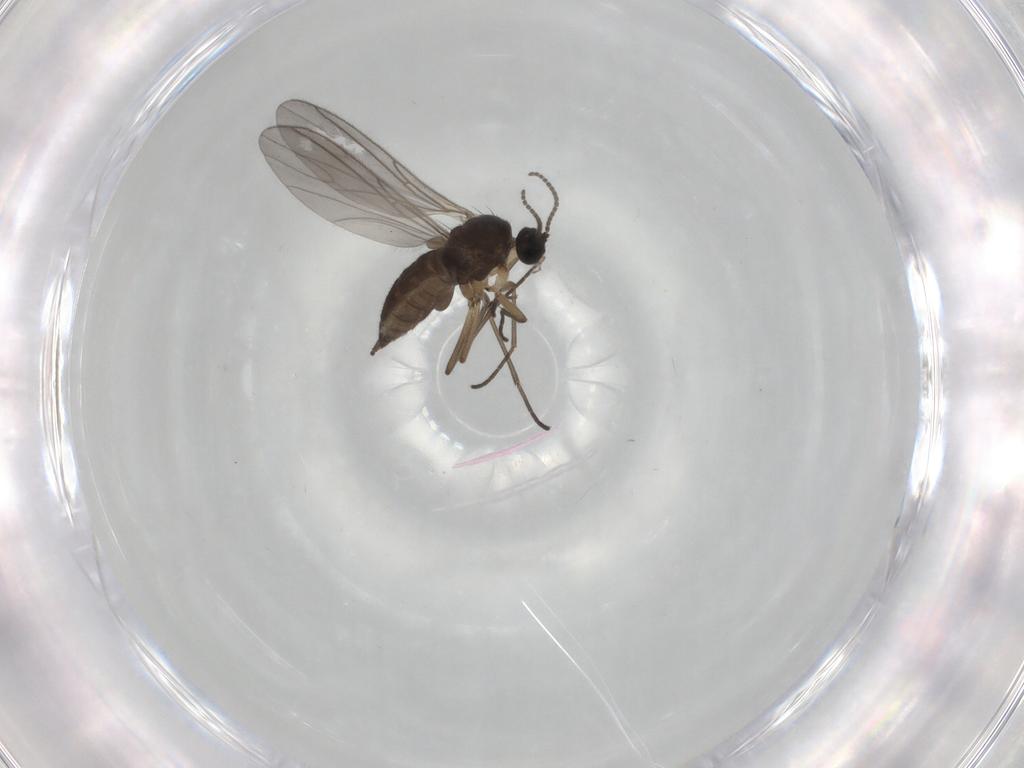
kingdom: Animalia
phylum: Arthropoda
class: Insecta
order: Diptera
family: Sciaridae
